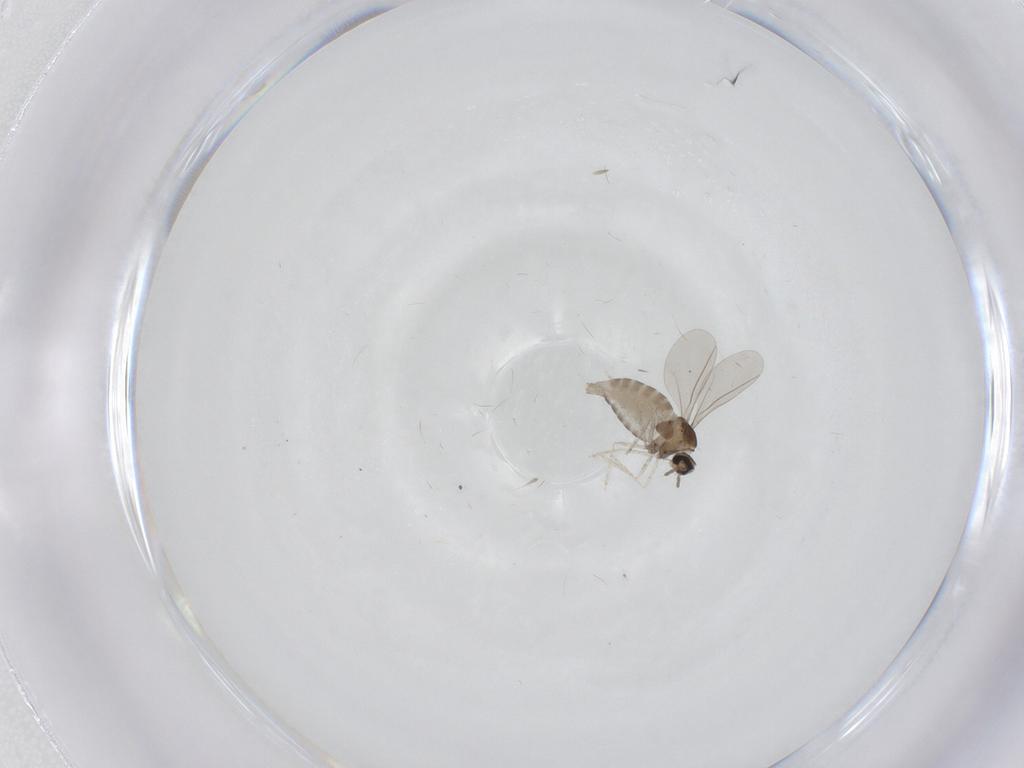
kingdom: Animalia
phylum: Arthropoda
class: Insecta
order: Diptera
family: Cecidomyiidae
